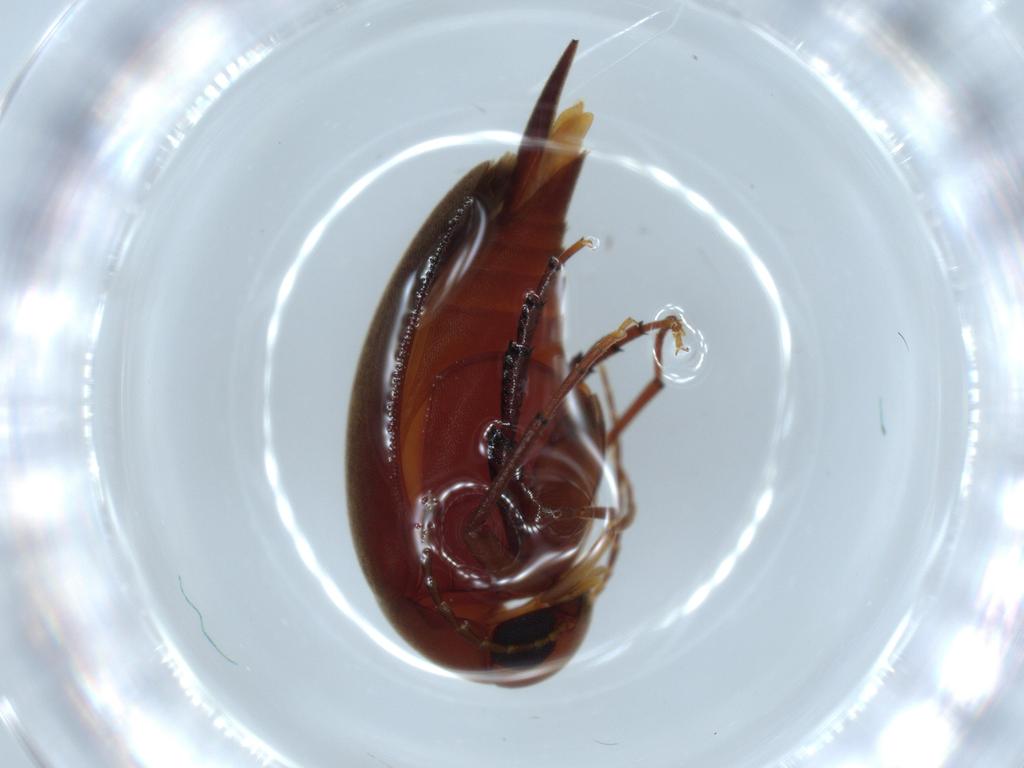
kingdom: Animalia
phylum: Arthropoda
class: Insecta
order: Coleoptera
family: Mordellidae
